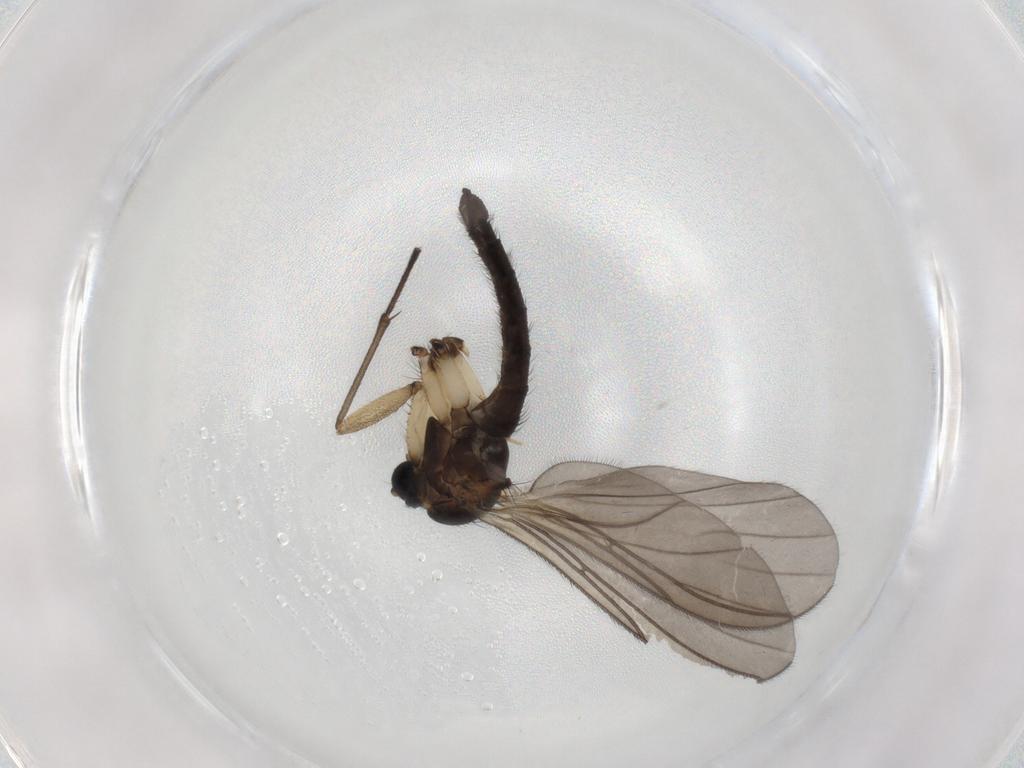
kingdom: Animalia
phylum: Arthropoda
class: Insecta
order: Diptera
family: Sciaridae
